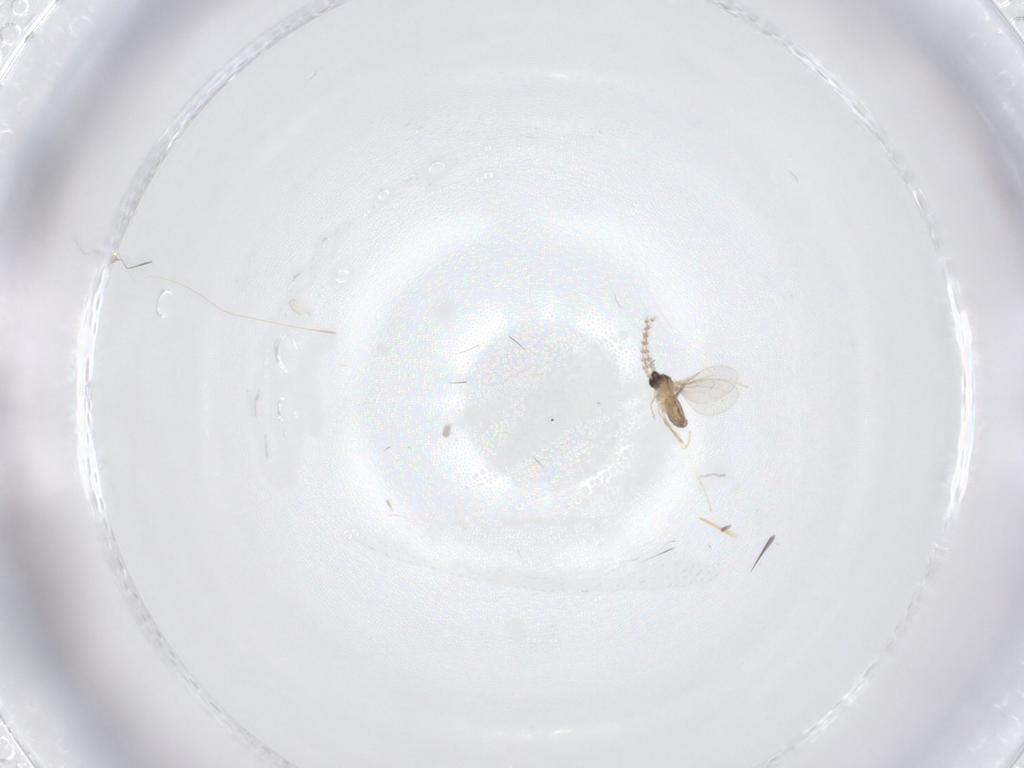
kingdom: Animalia
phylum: Arthropoda
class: Insecta
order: Diptera
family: Cecidomyiidae
